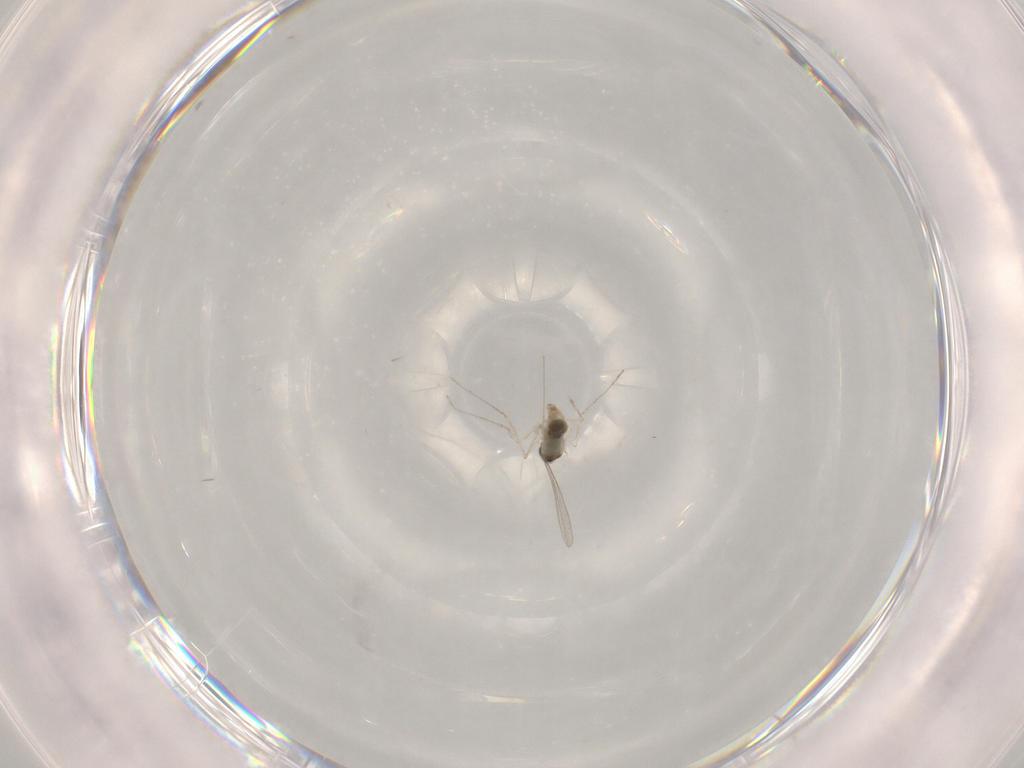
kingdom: Animalia
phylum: Arthropoda
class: Insecta
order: Diptera
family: Cecidomyiidae
